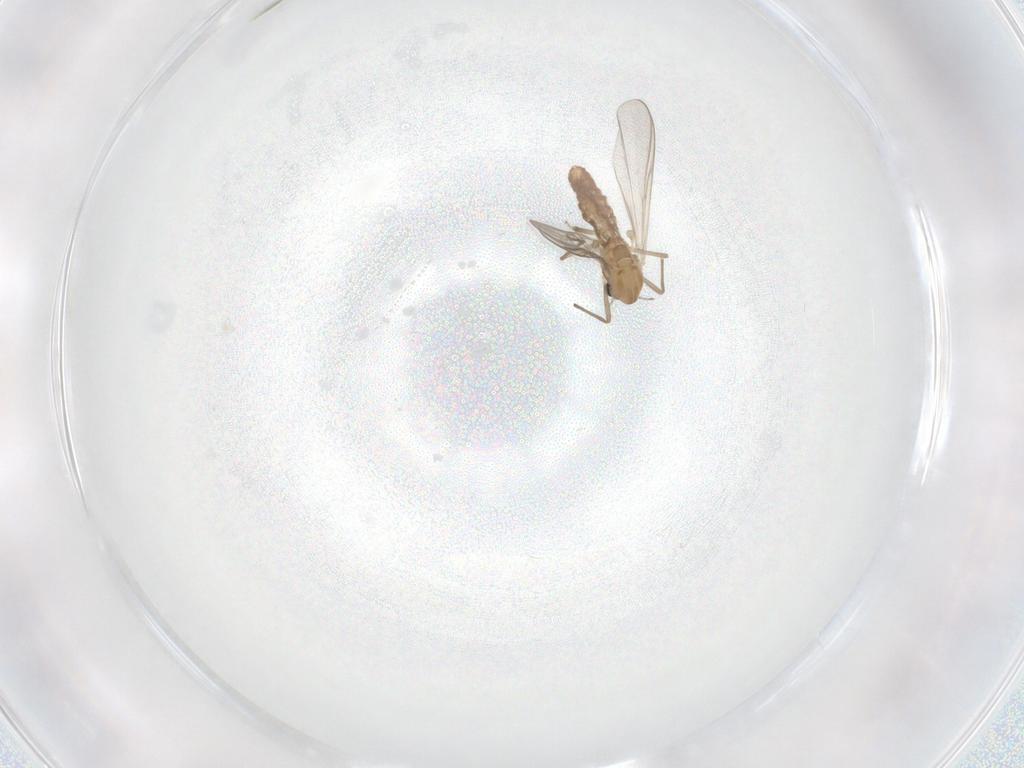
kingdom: Animalia
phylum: Arthropoda
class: Insecta
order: Diptera
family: Chironomidae
